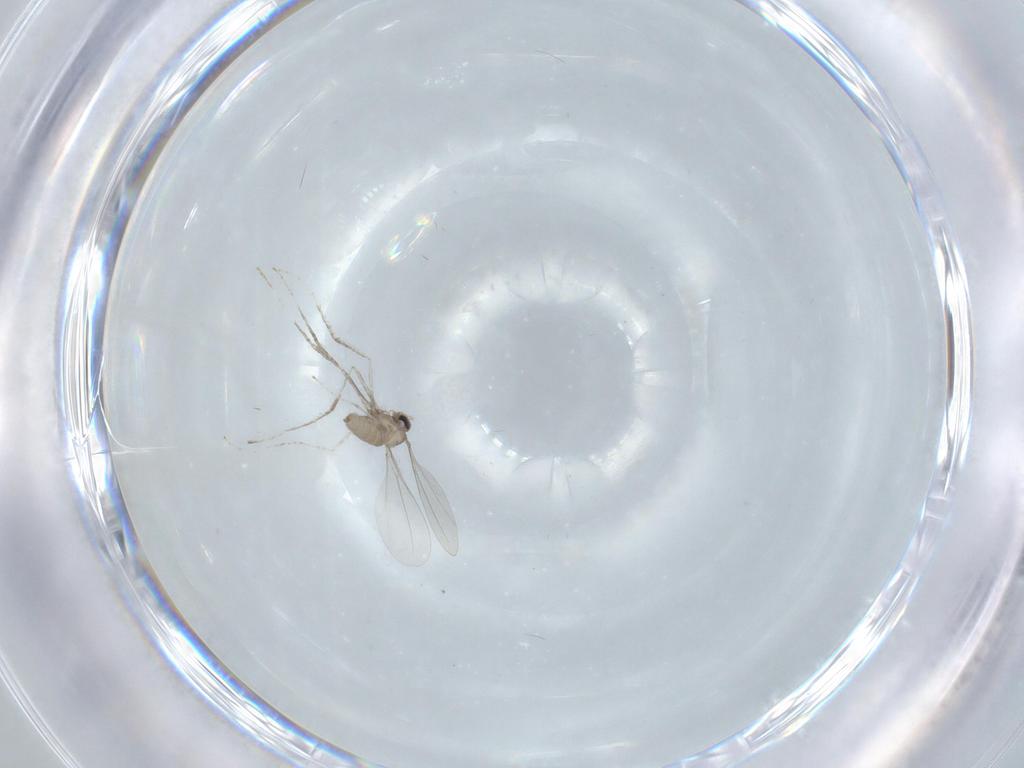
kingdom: Animalia
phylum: Arthropoda
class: Insecta
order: Diptera
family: Cecidomyiidae
